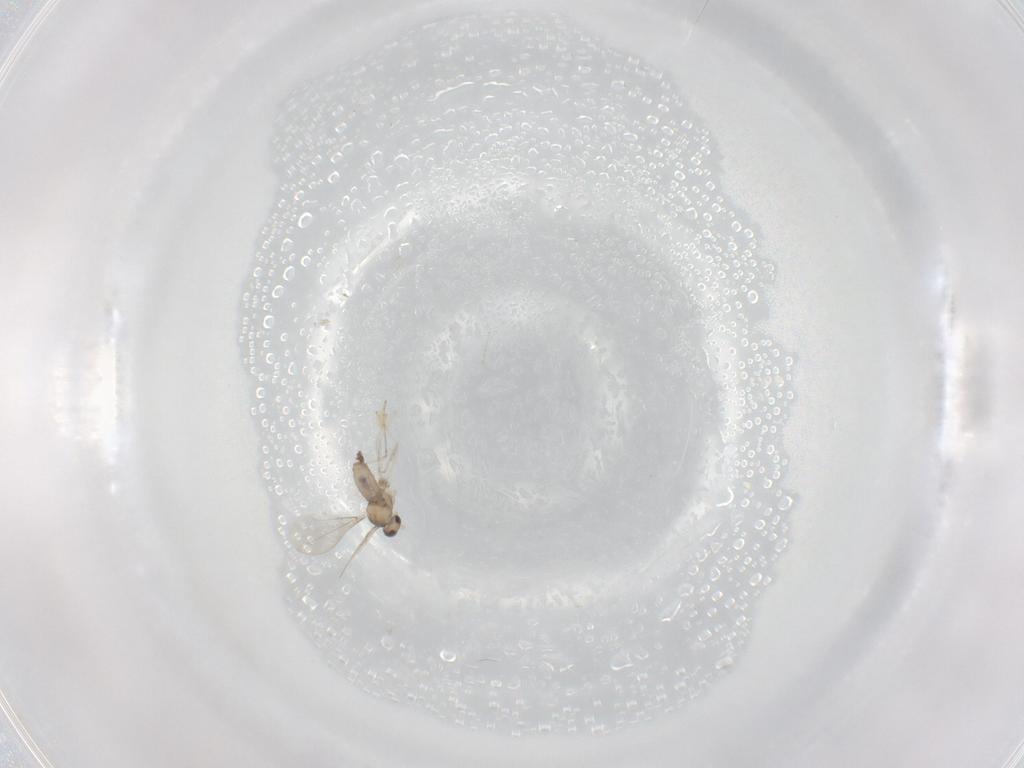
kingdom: Animalia
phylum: Arthropoda
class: Insecta
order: Diptera
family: Cecidomyiidae
